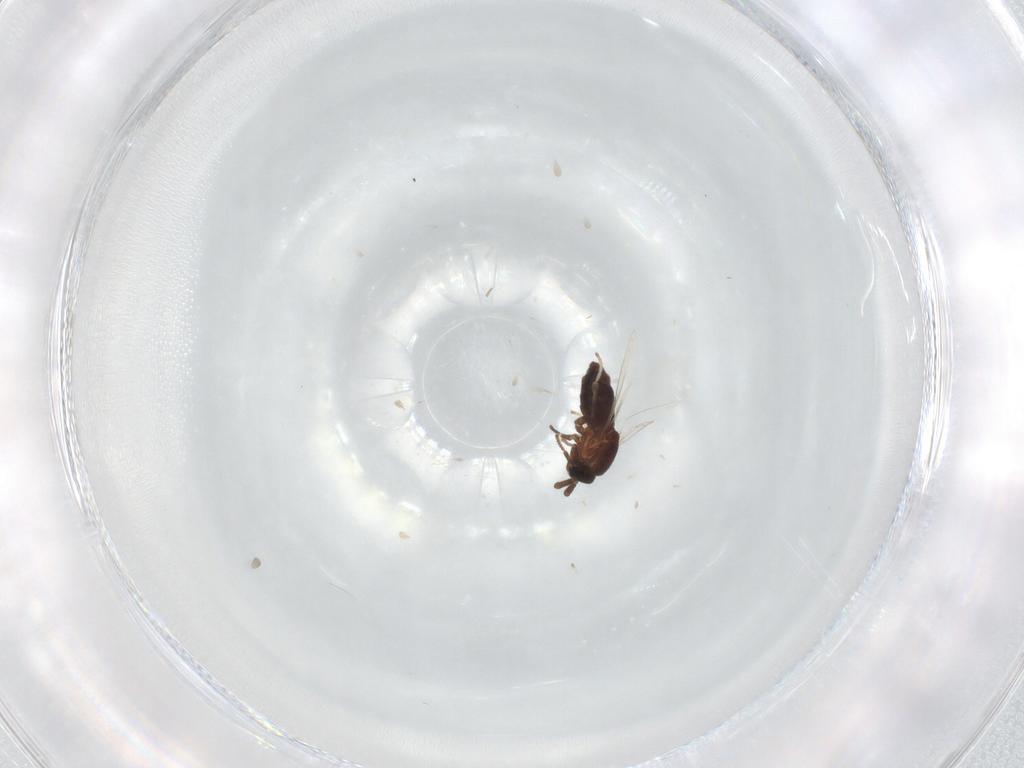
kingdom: Animalia
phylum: Arthropoda
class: Insecta
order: Diptera
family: Scatopsidae
